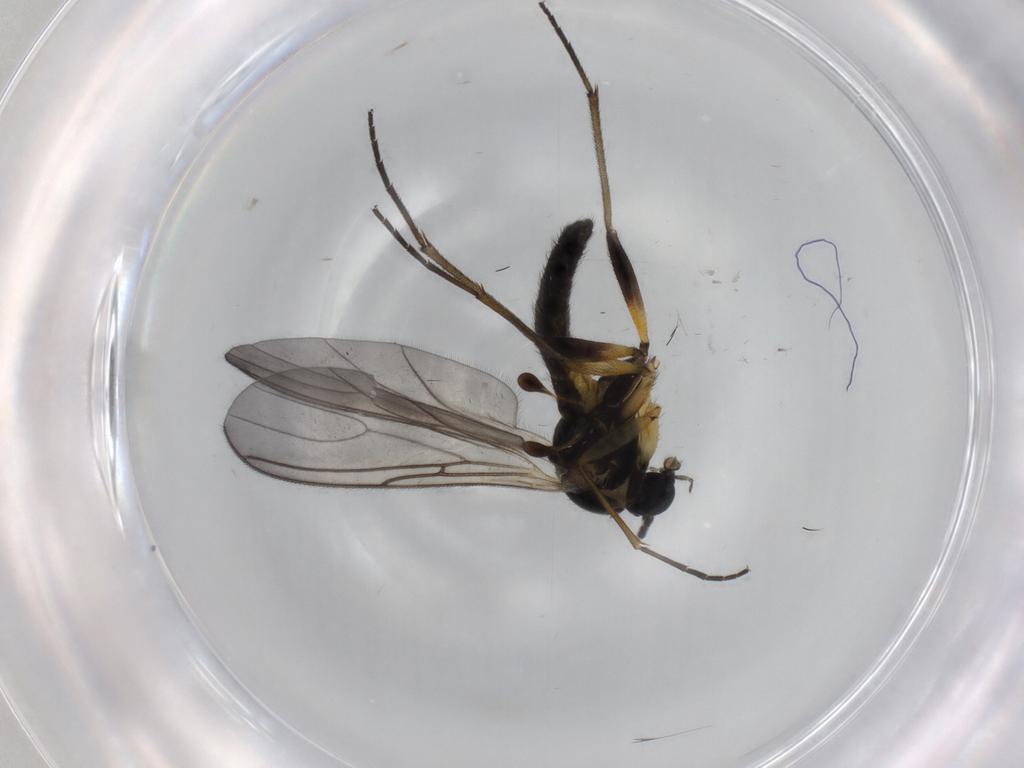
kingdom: Animalia
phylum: Arthropoda
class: Insecta
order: Diptera
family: Sciaridae
